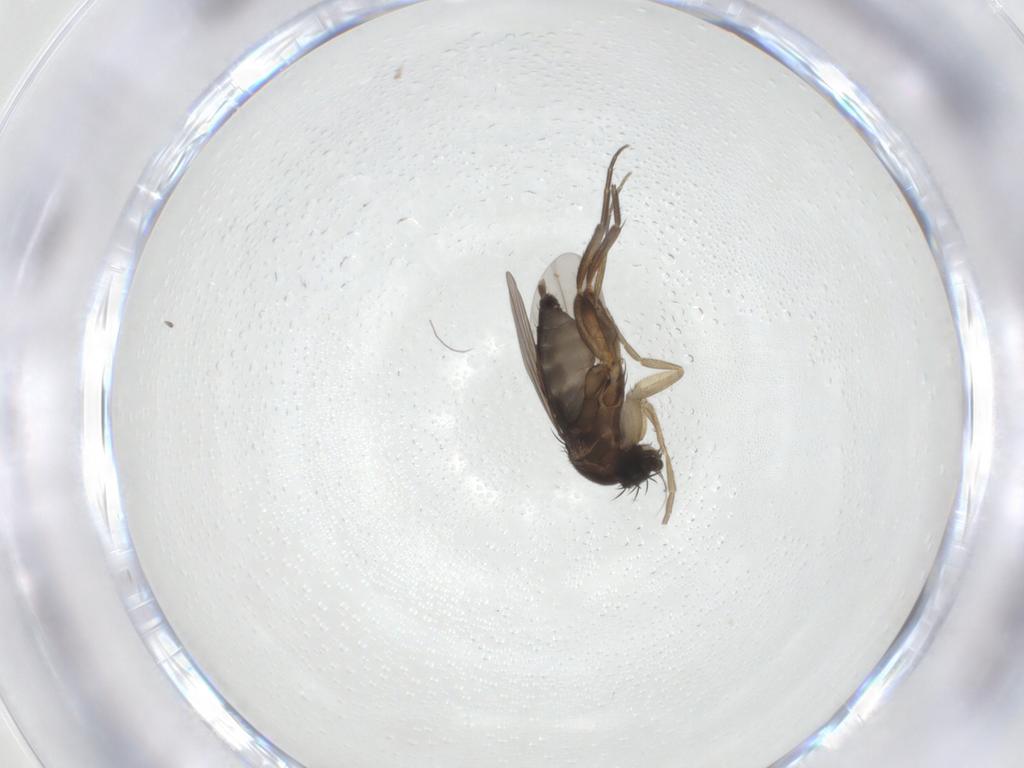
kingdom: Animalia
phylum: Arthropoda
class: Insecta
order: Diptera
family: Phoridae
